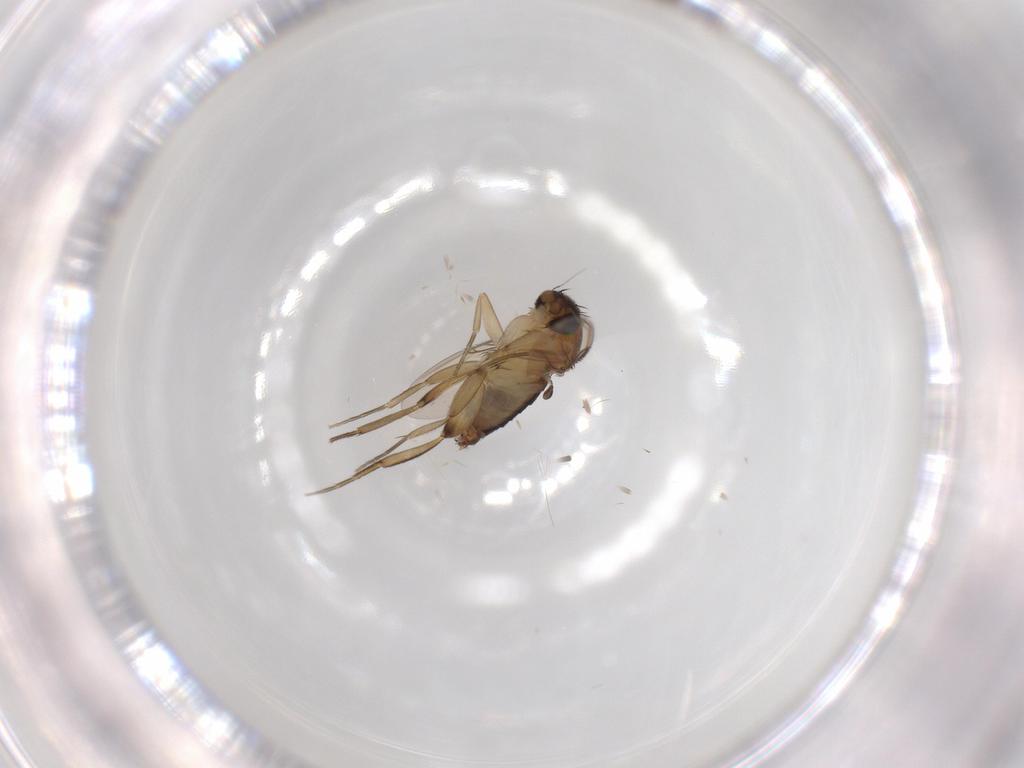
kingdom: Animalia
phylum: Arthropoda
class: Insecta
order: Diptera
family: Phoridae
